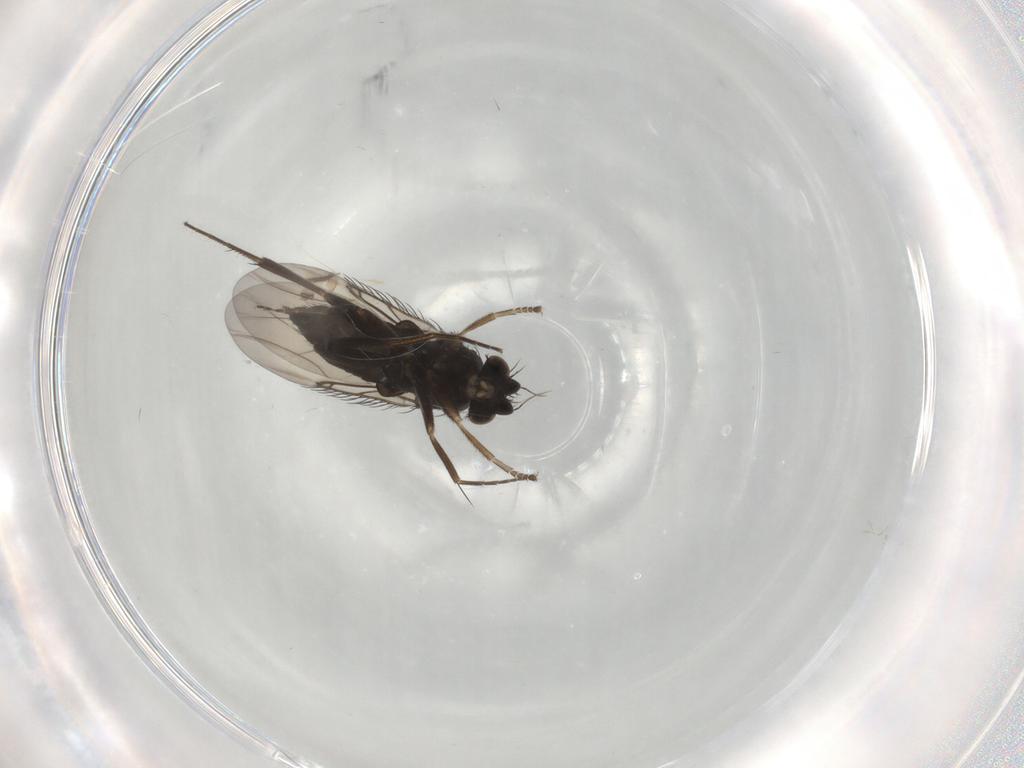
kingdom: Animalia
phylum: Arthropoda
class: Insecta
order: Diptera
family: Phoridae
